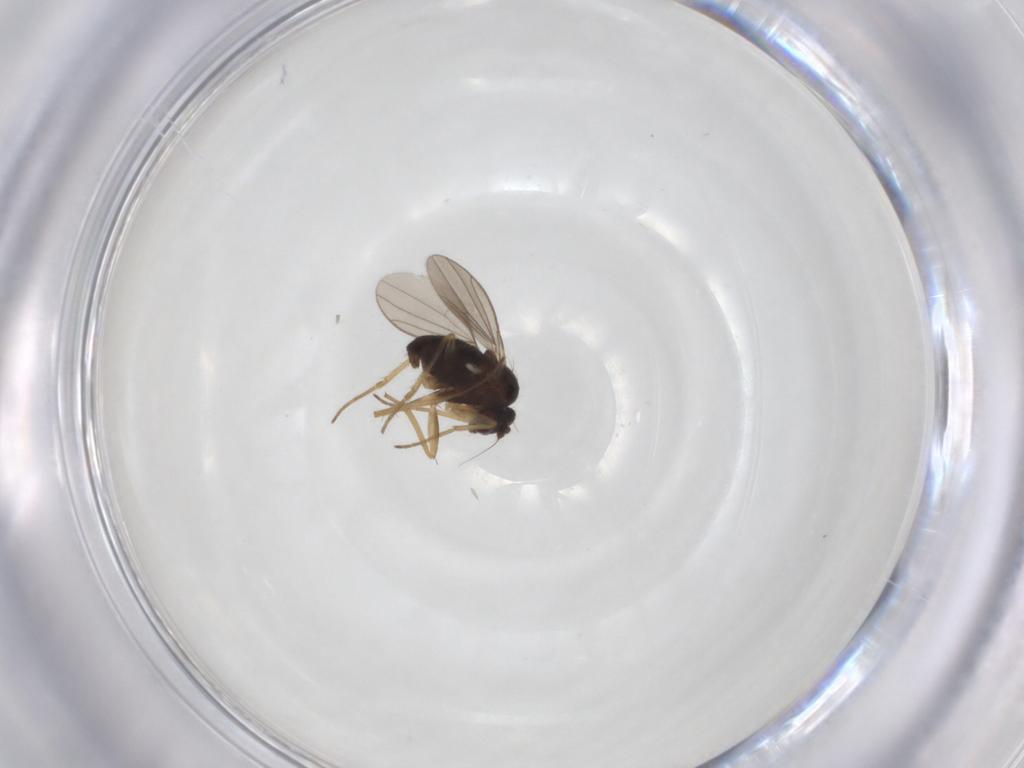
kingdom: Animalia
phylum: Arthropoda
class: Insecta
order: Diptera
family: Dolichopodidae
